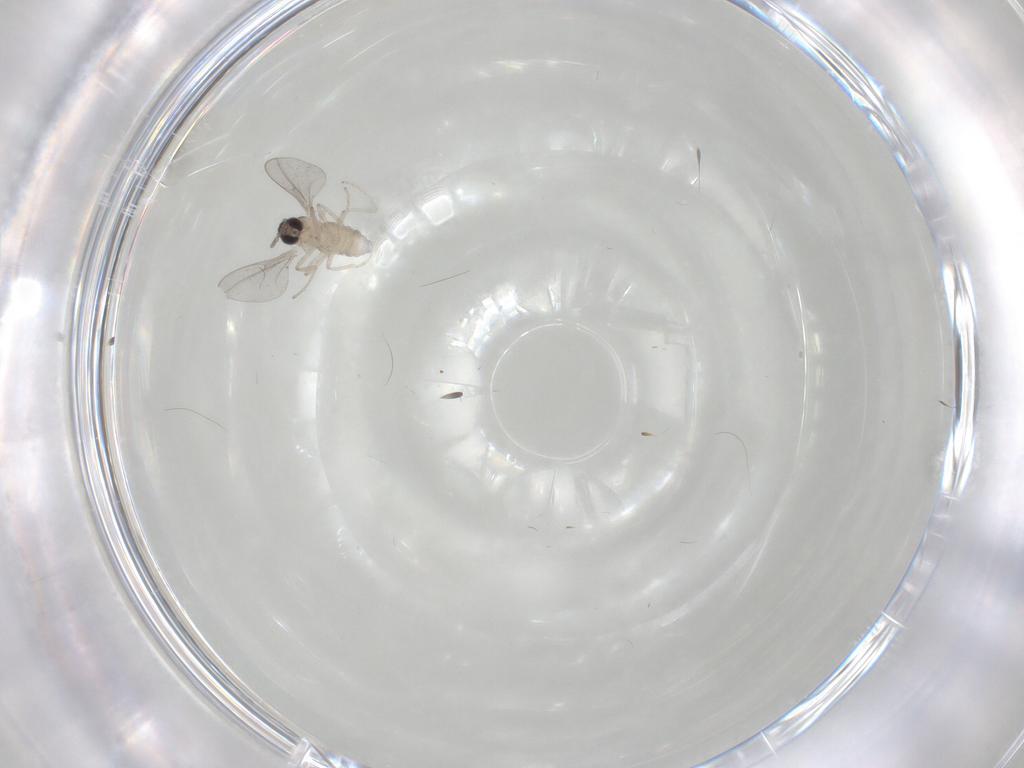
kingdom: Animalia
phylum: Arthropoda
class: Insecta
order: Diptera
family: Cecidomyiidae
